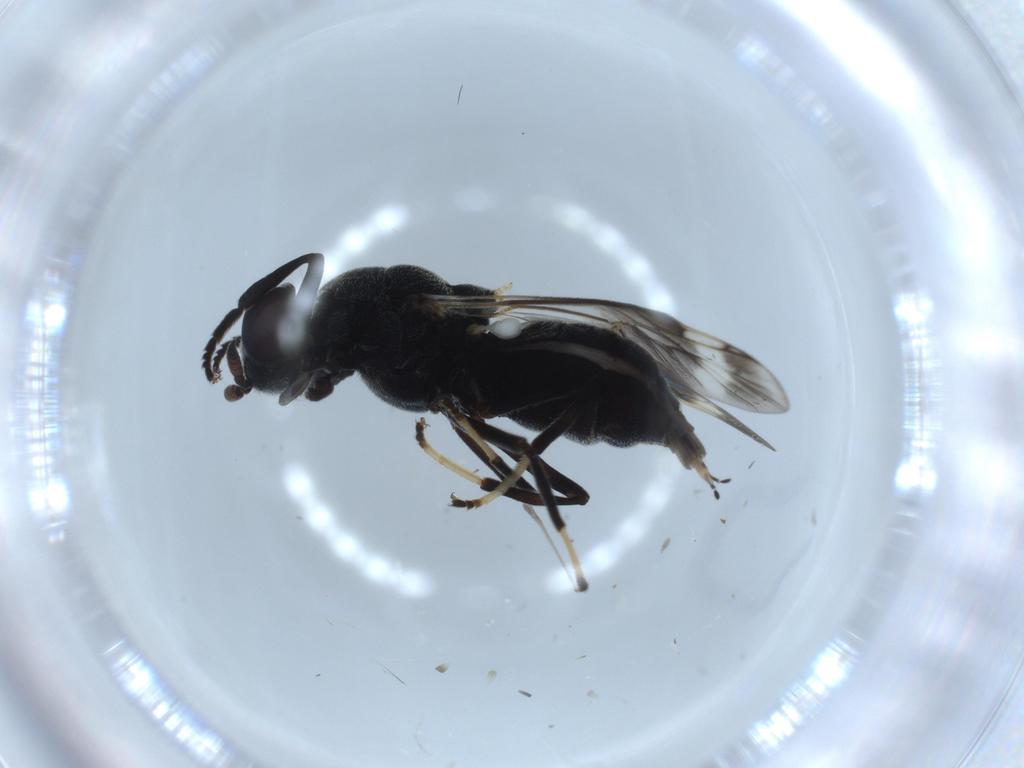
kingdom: Animalia
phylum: Arthropoda
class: Insecta
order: Diptera
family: Stratiomyidae
